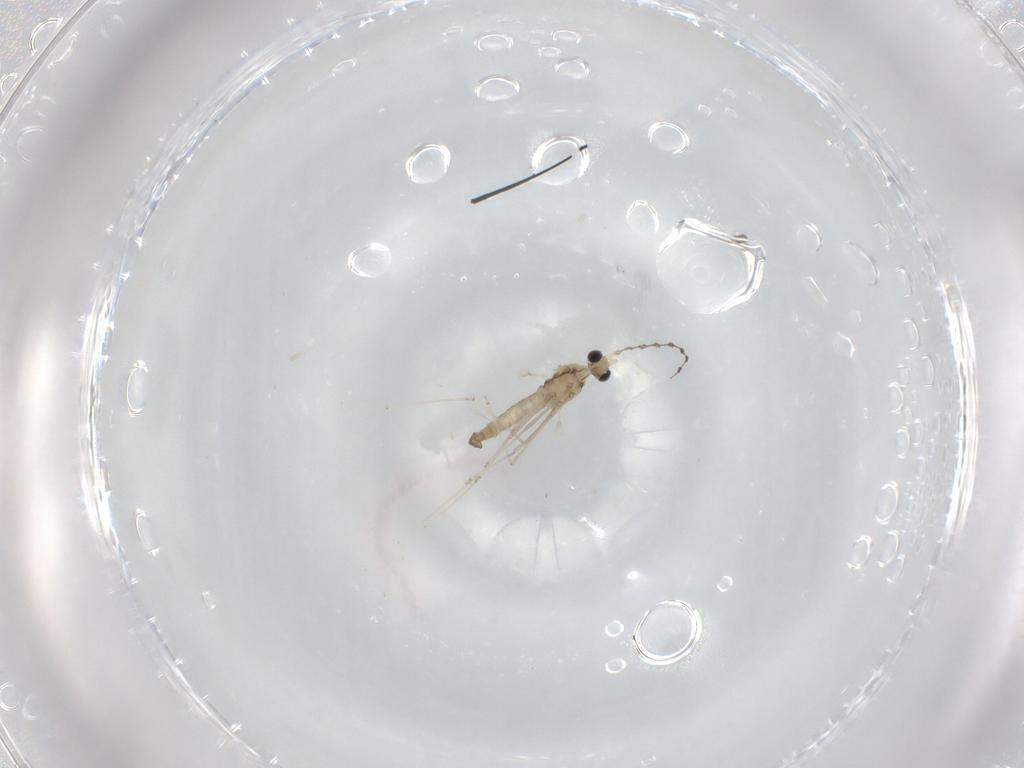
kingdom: Animalia
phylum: Arthropoda
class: Insecta
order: Diptera
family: Cecidomyiidae
